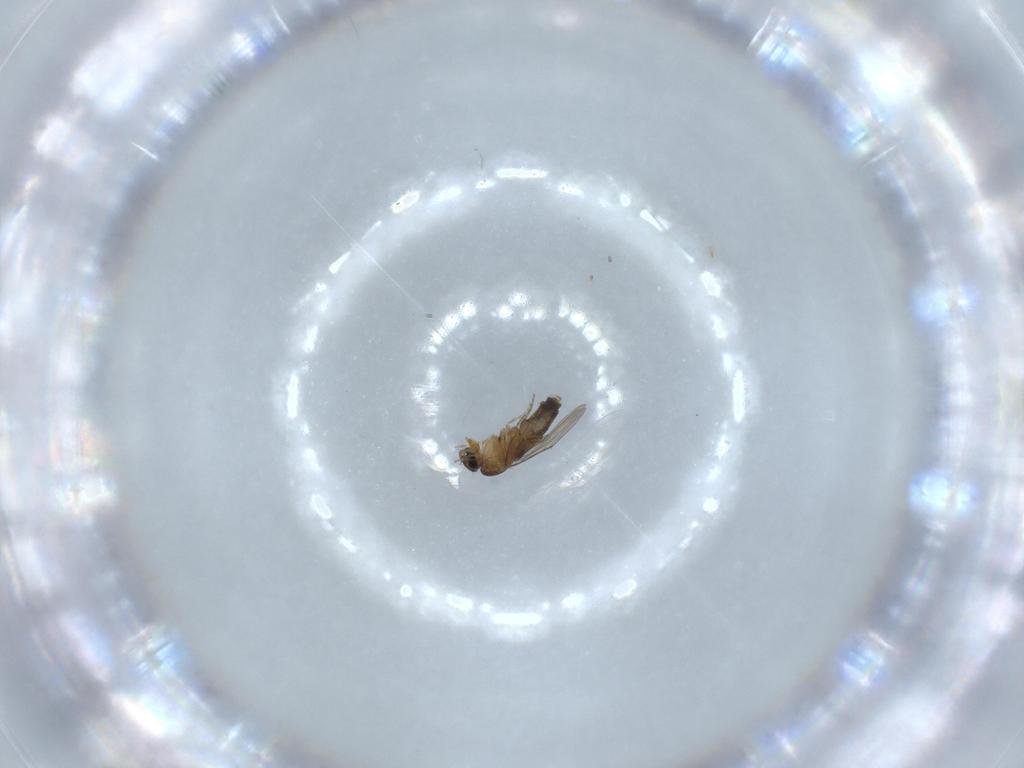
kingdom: Animalia
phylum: Arthropoda
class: Insecta
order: Diptera
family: Phoridae
